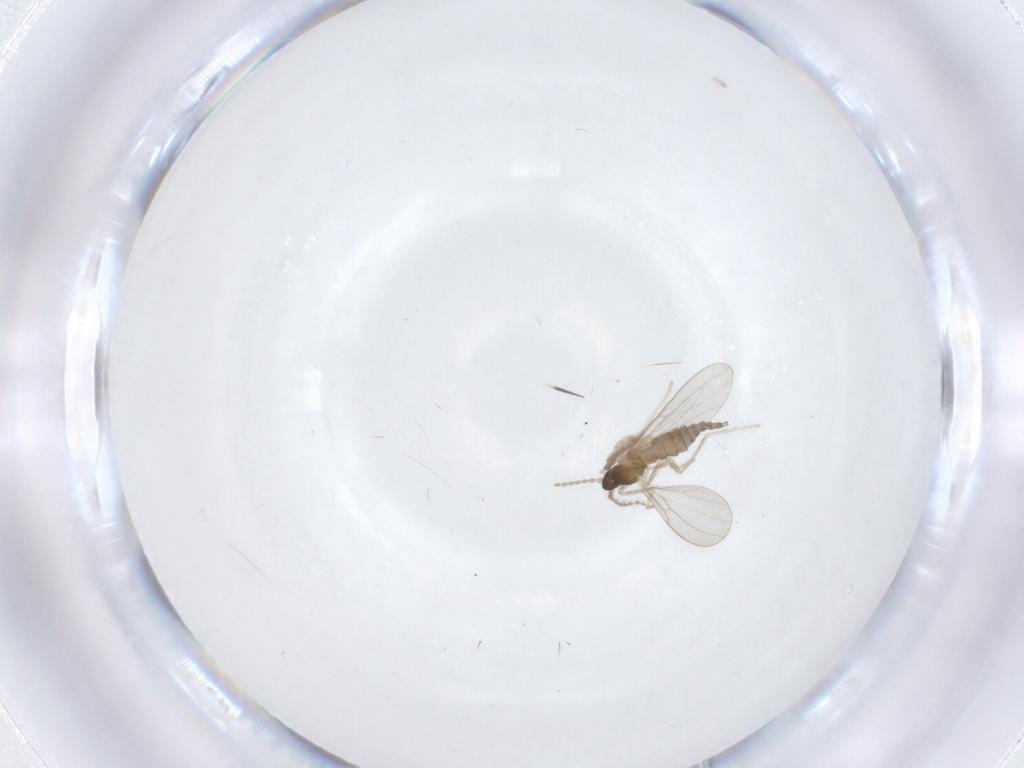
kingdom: Animalia
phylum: Arthropoda
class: Insecta
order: Diptera
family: Cecidomyiidae
